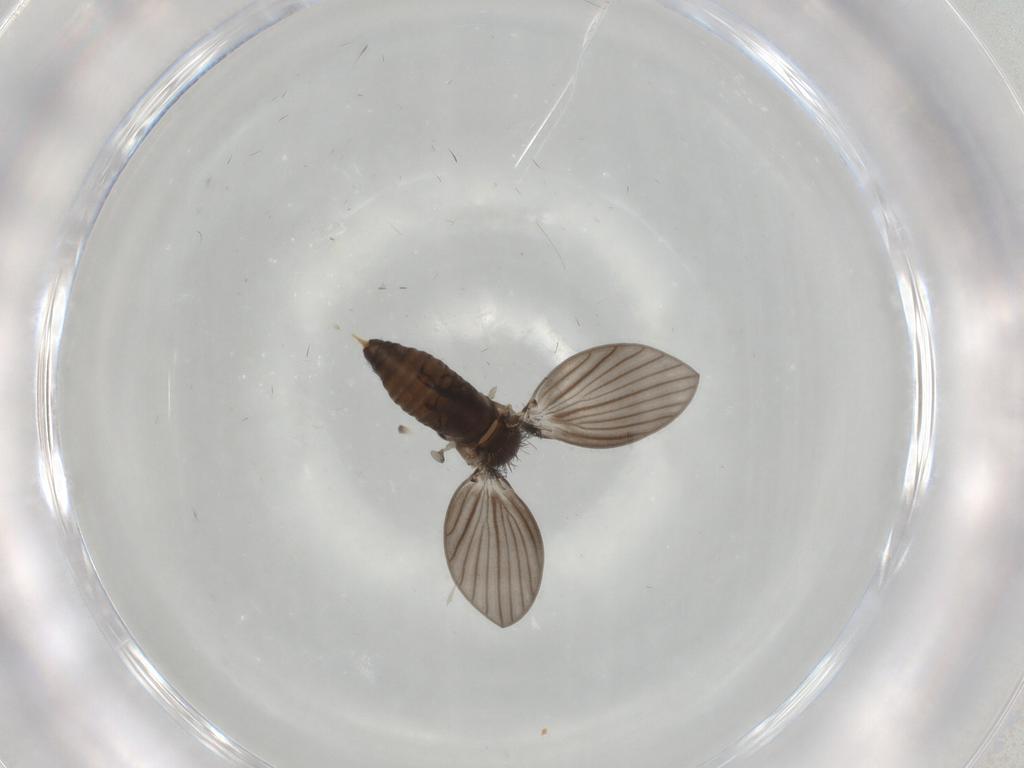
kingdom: Animalia
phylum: Arthropoda
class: Insecta
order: Diptera
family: Psychodidae
